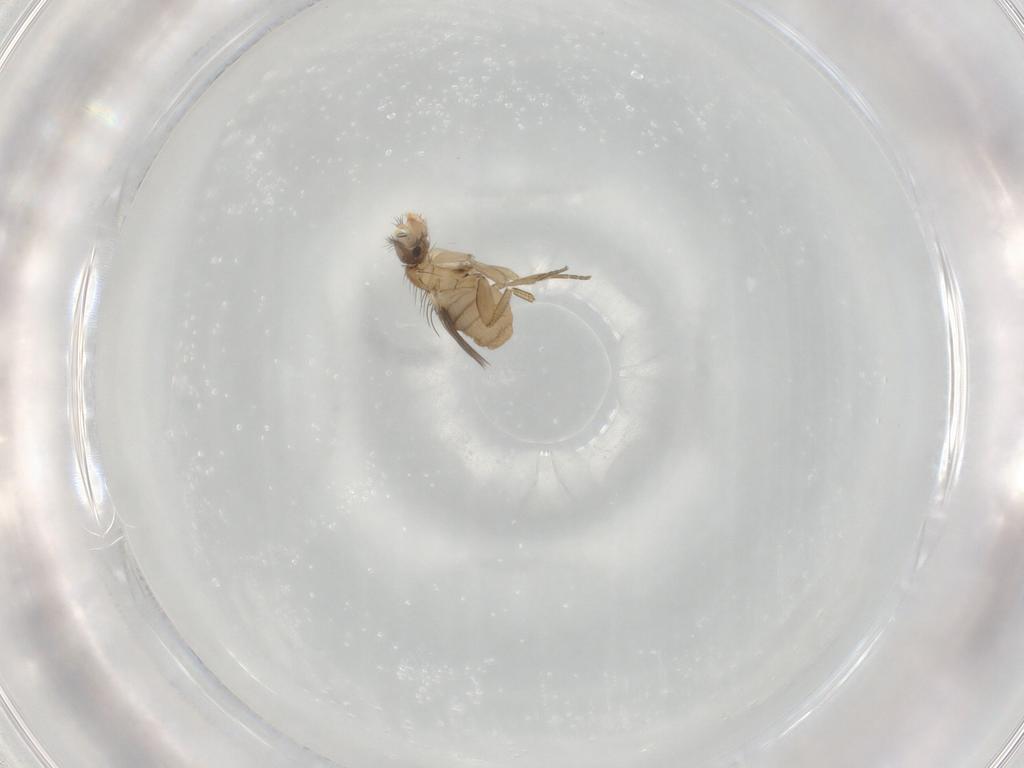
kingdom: Animalia
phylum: Arthropoda
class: Insecta
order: Diptera
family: Phoridae
